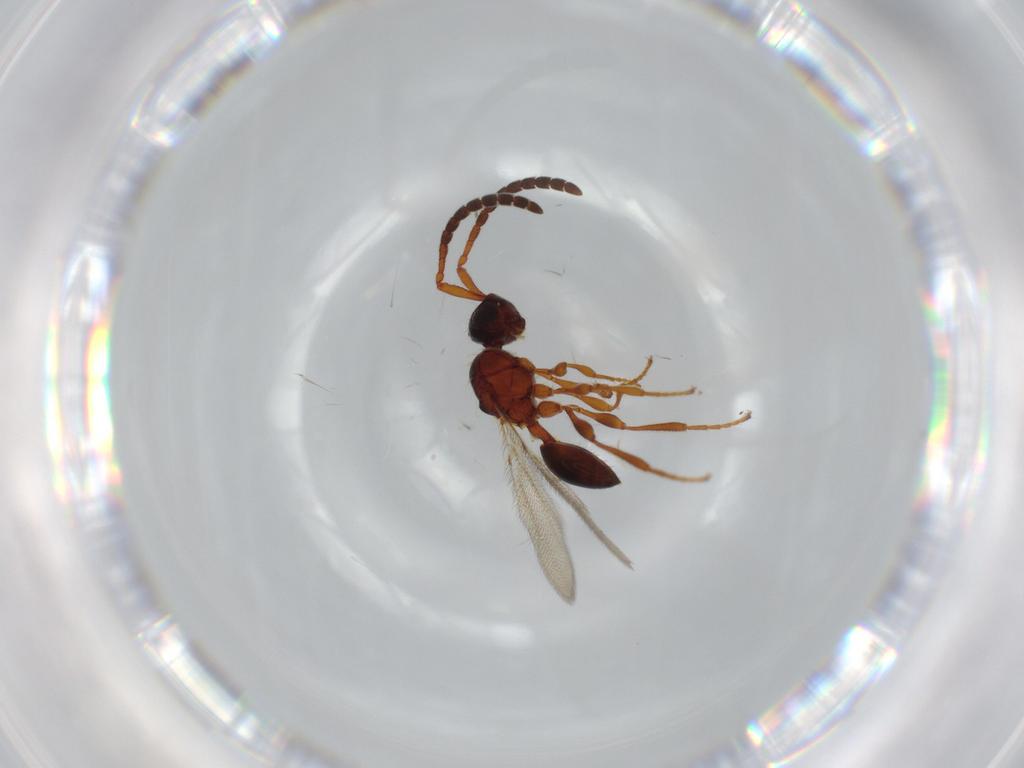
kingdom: Animalia
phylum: Arthropoda
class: Insecta
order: Hymenoptera
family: Diapriidae
